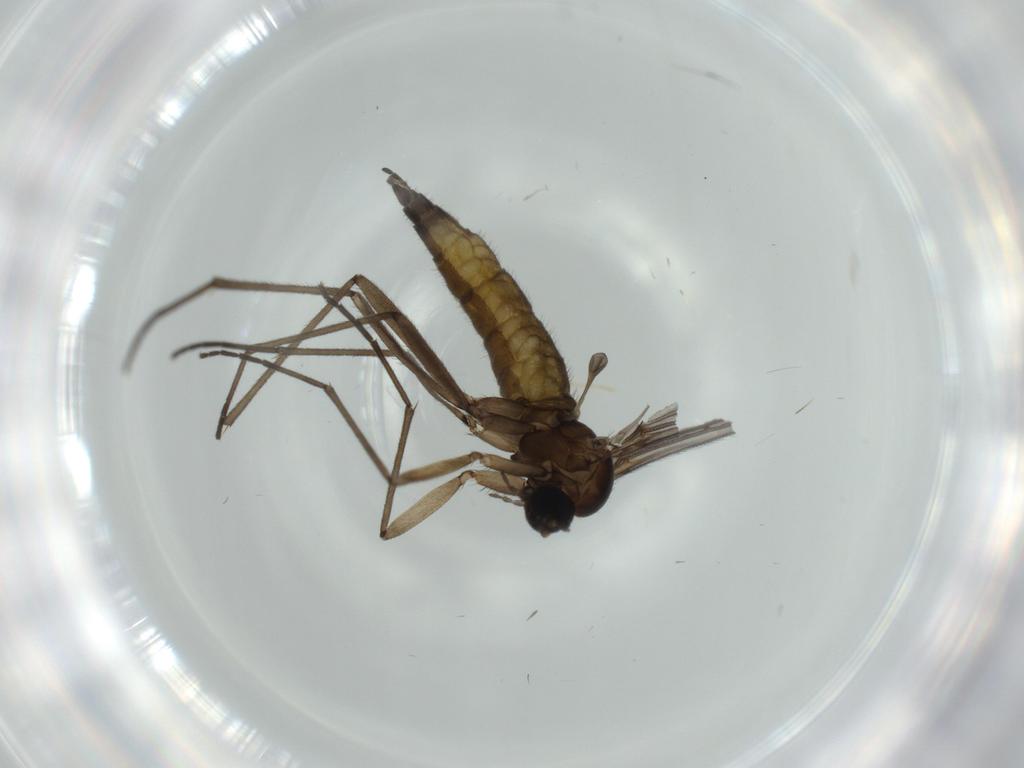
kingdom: Animalia
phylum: Arthropoda
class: Insecta
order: Diptera
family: Sciaridae
